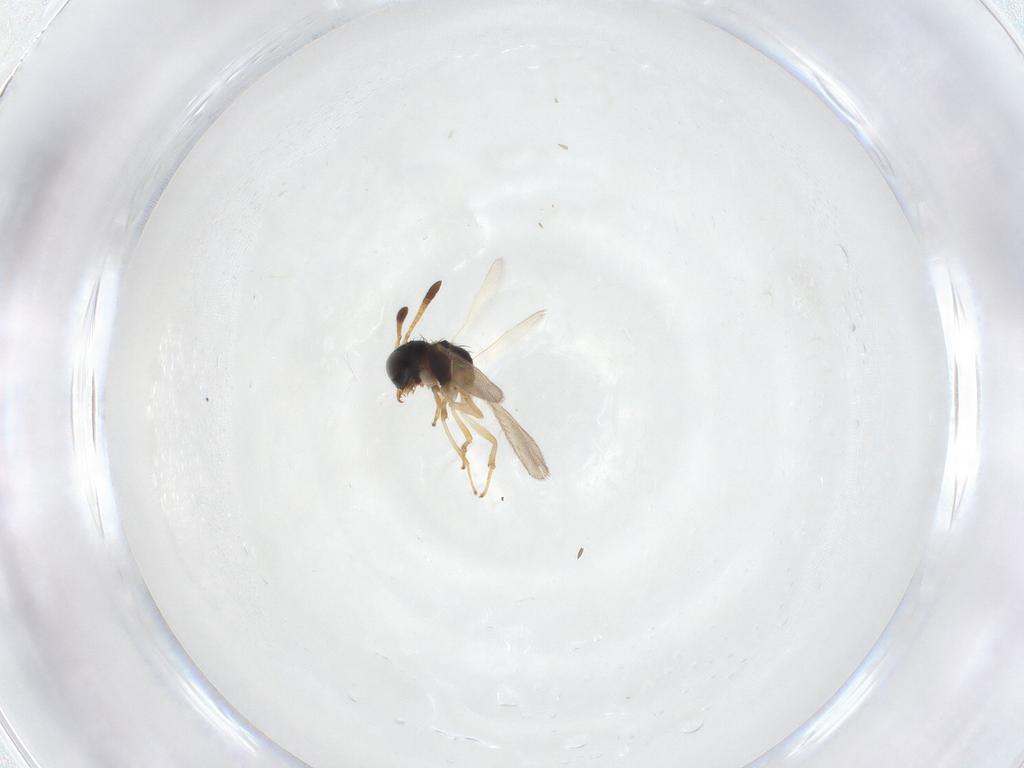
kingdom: Animalia
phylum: Arthropoda
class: Insecta
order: Hymenoptera
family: Diparidae
